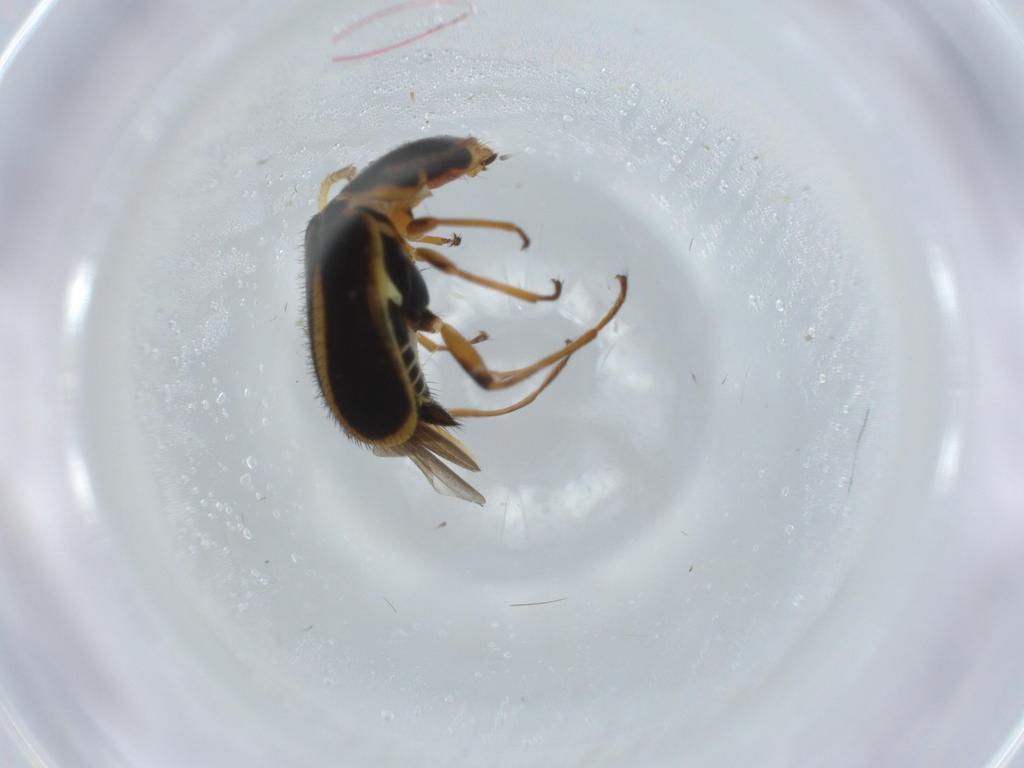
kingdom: Animalia
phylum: Arthropoda
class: Insecta
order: Coleoptera
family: Melyridae
